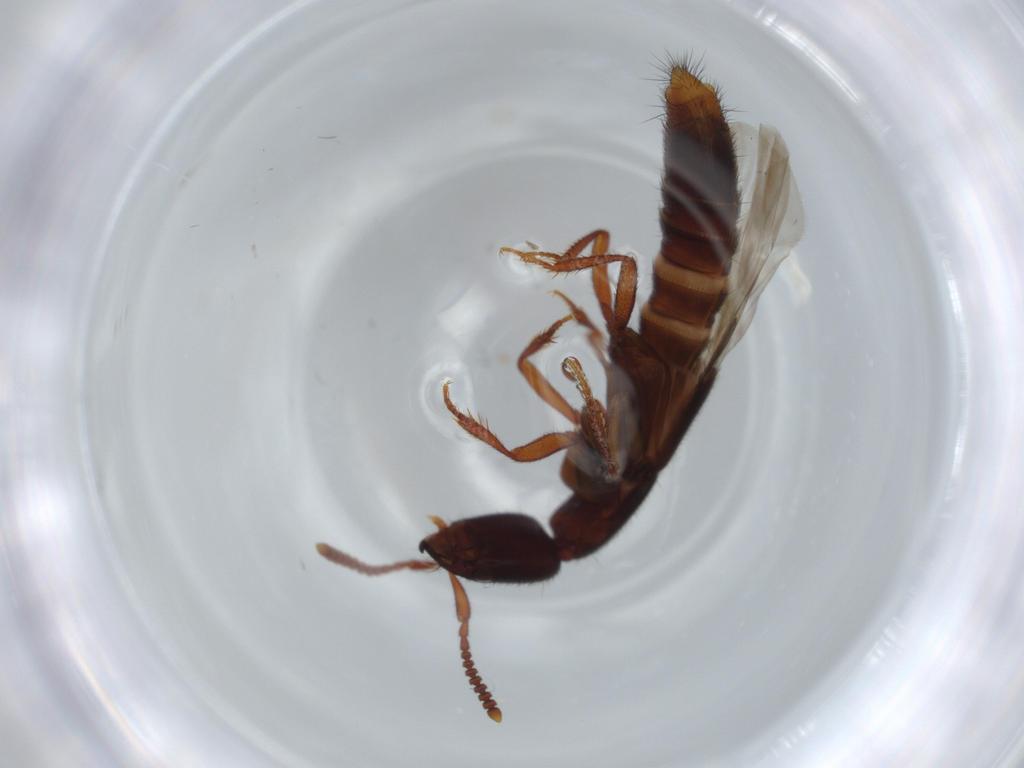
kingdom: Animalia
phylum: Arthropoda
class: Insecta
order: Coleoptera
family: Staphylinidae
